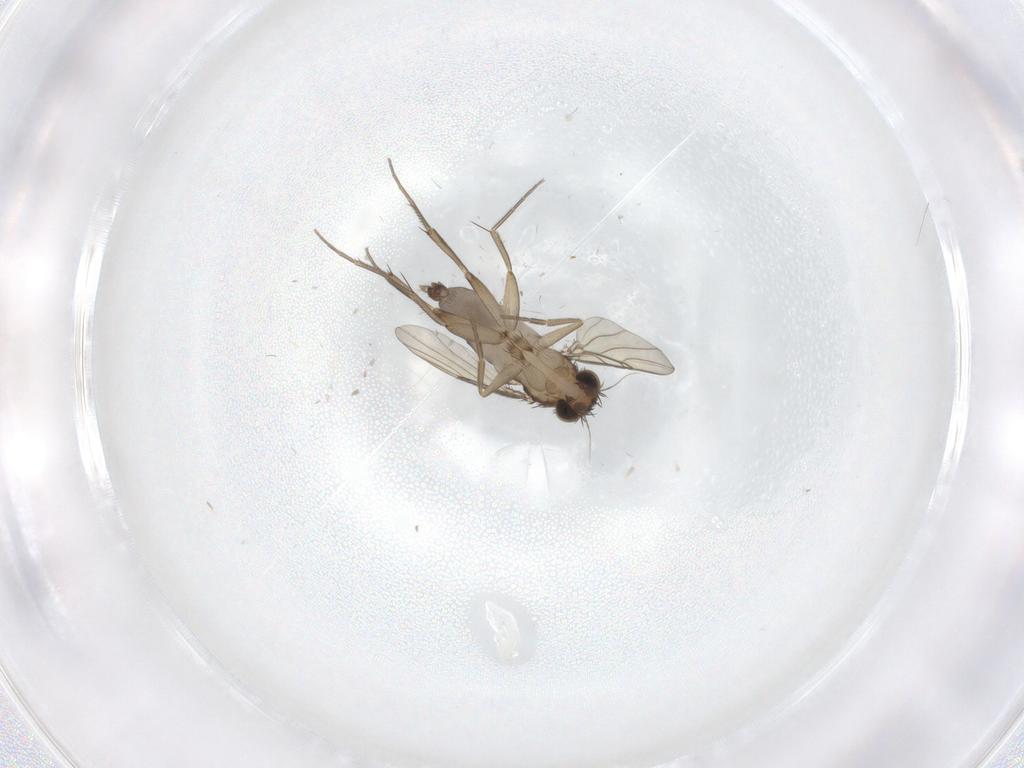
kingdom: Animalia
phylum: Arthropoda
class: Insecta
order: Diptera
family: Phoridae
